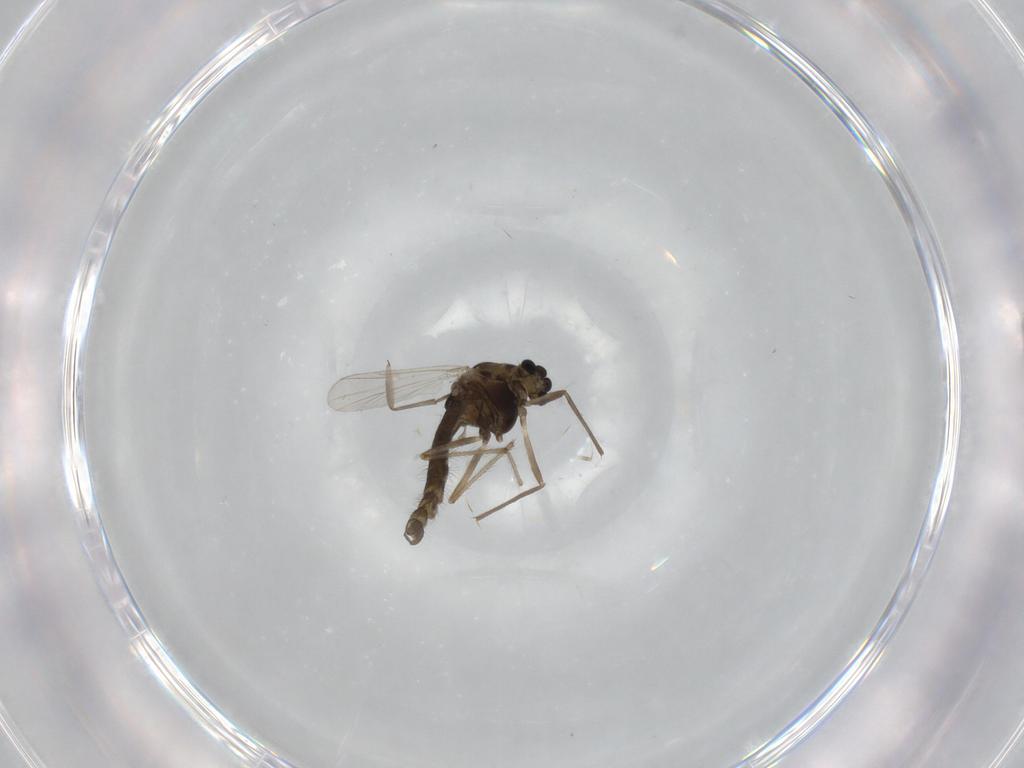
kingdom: Animalia
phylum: Arthropoda
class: Insecta
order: Diptera
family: Chironomidae
